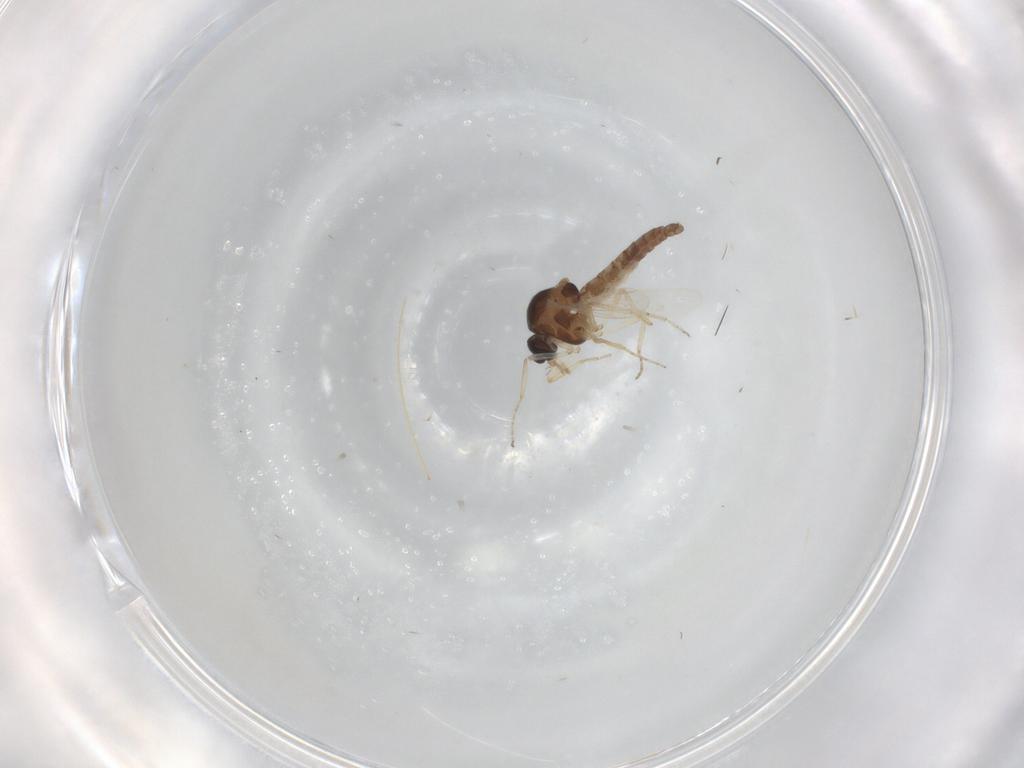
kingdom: Animalia
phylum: Arthropoda
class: Insecta
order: Diptera
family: Ceratopogonidae
